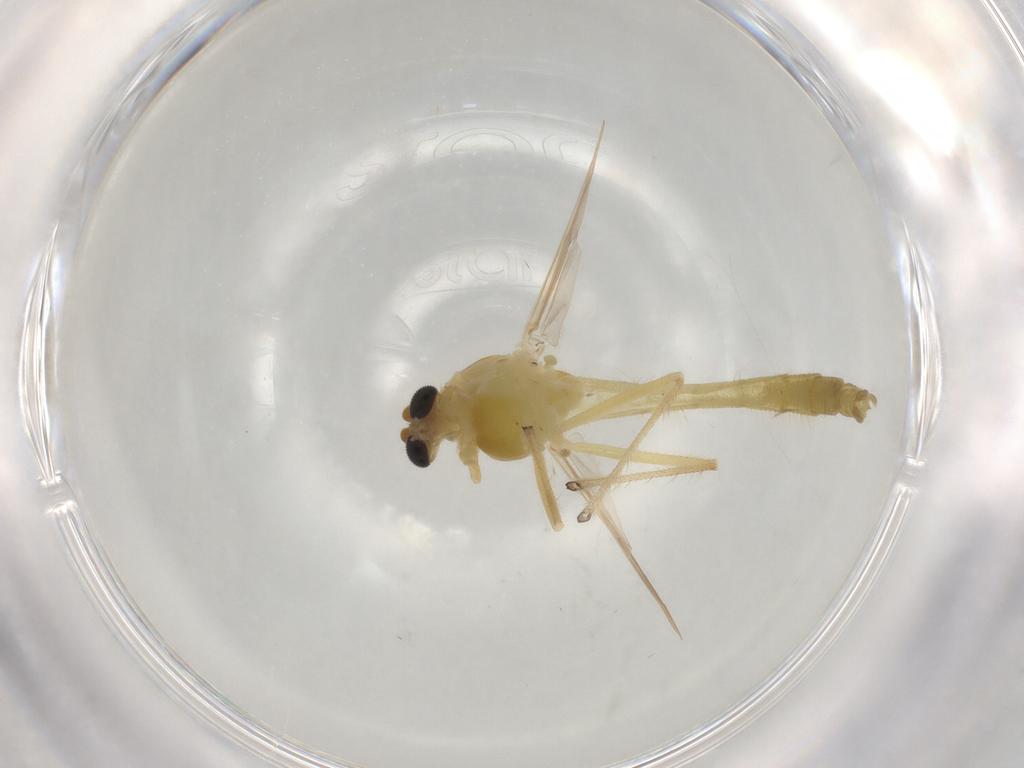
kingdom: Animalia
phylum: Arthropoda
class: Insecta
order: Diptera
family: Chironomidae
